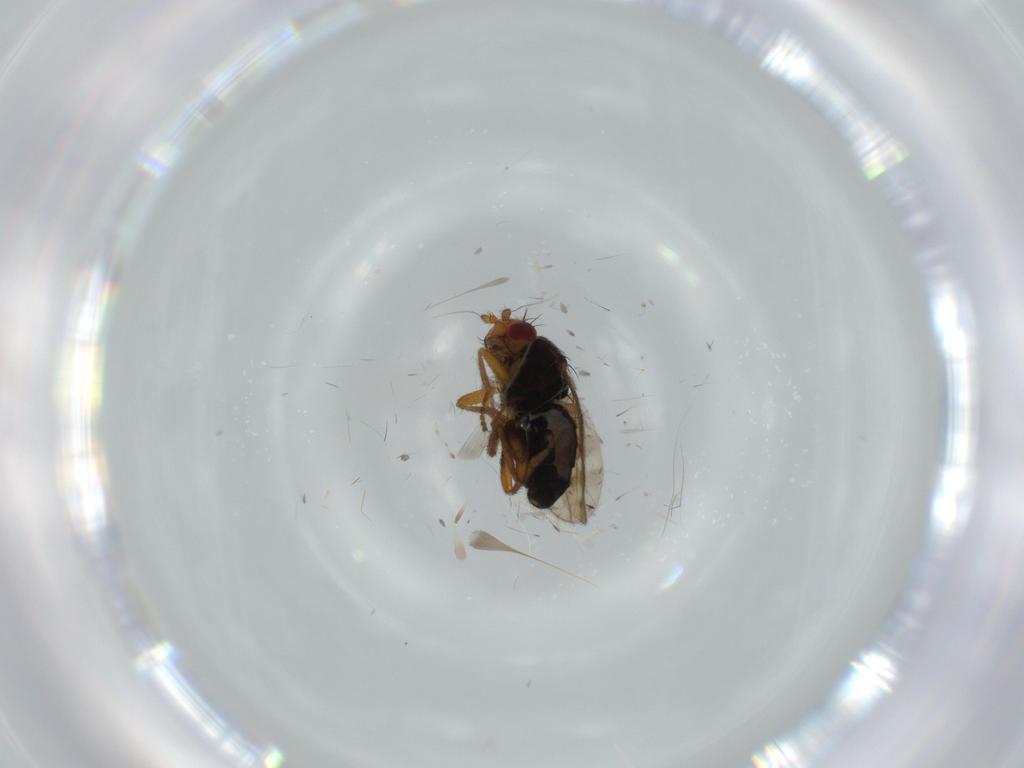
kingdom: Animalia
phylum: Arthropoda
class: Insecta
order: Diptera
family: Sphaeroceridae
